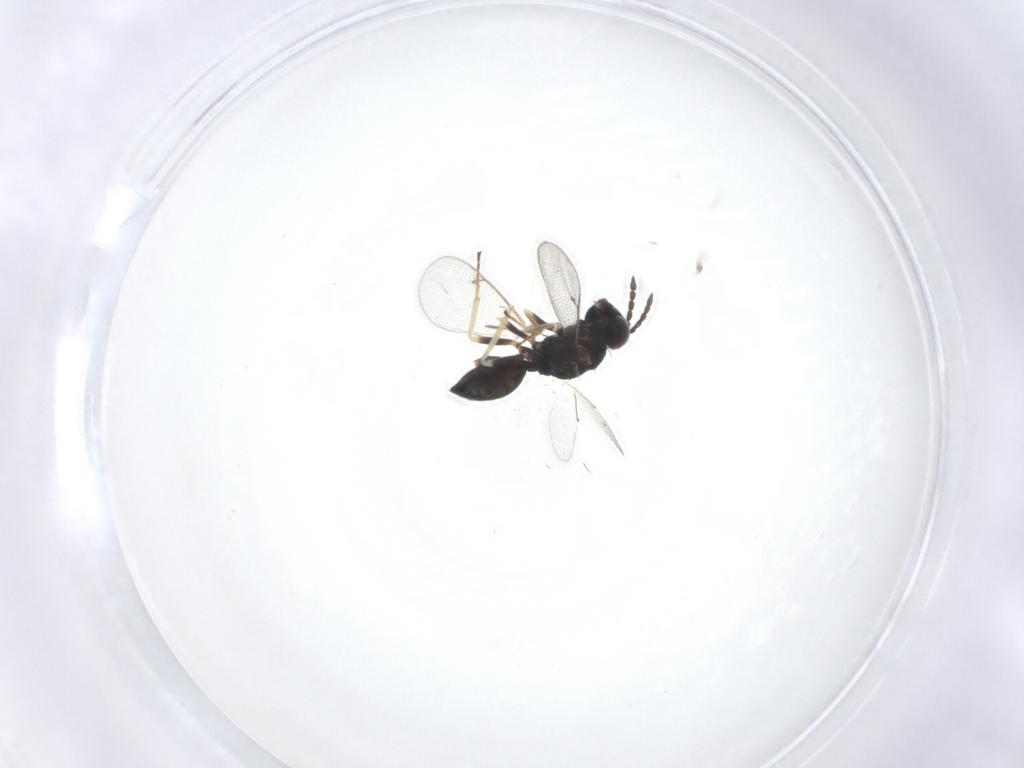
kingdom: Animalia
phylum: Arthropoda
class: Insecta
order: Hymenoptera
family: Eulophidae
